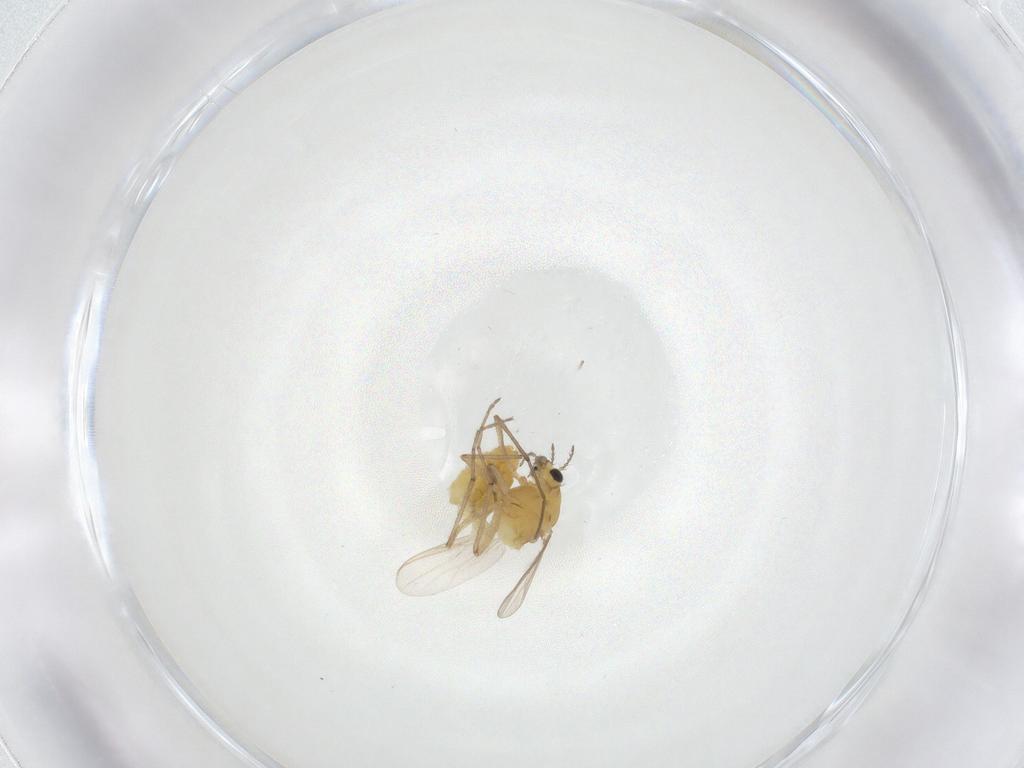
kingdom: Animalia
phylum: Arthropoda
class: Insecta
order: Diptera
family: Chironomidae
